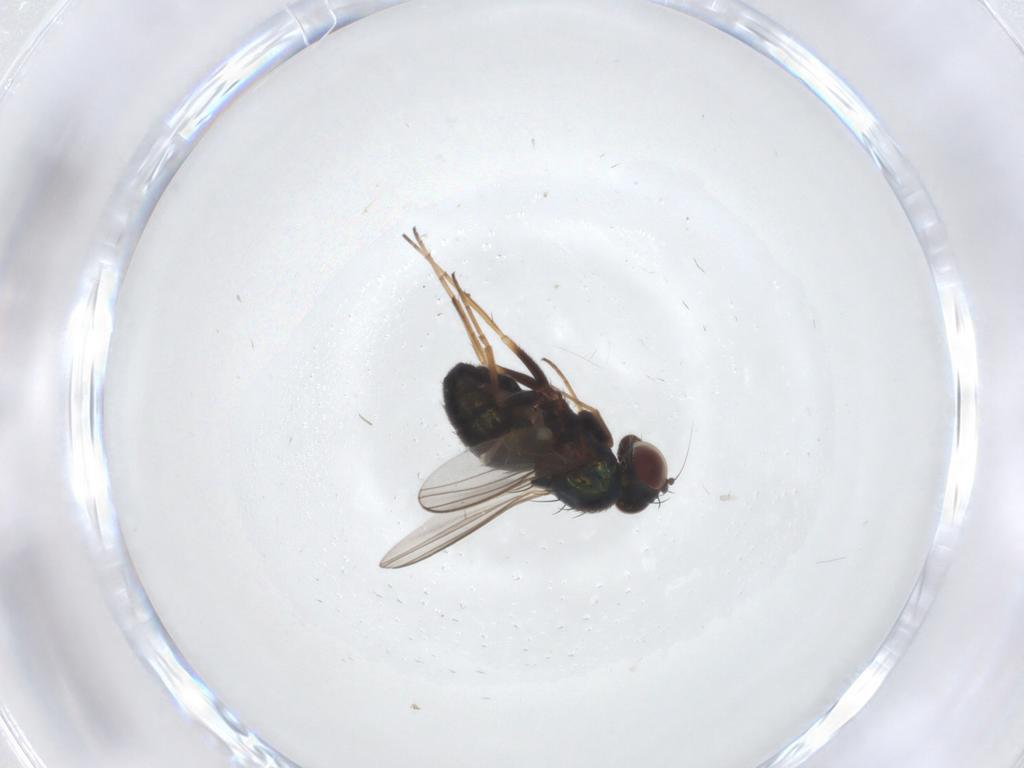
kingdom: Animalia
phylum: Arthropoda
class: Insecta
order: Diptera
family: Dolichopodidae
